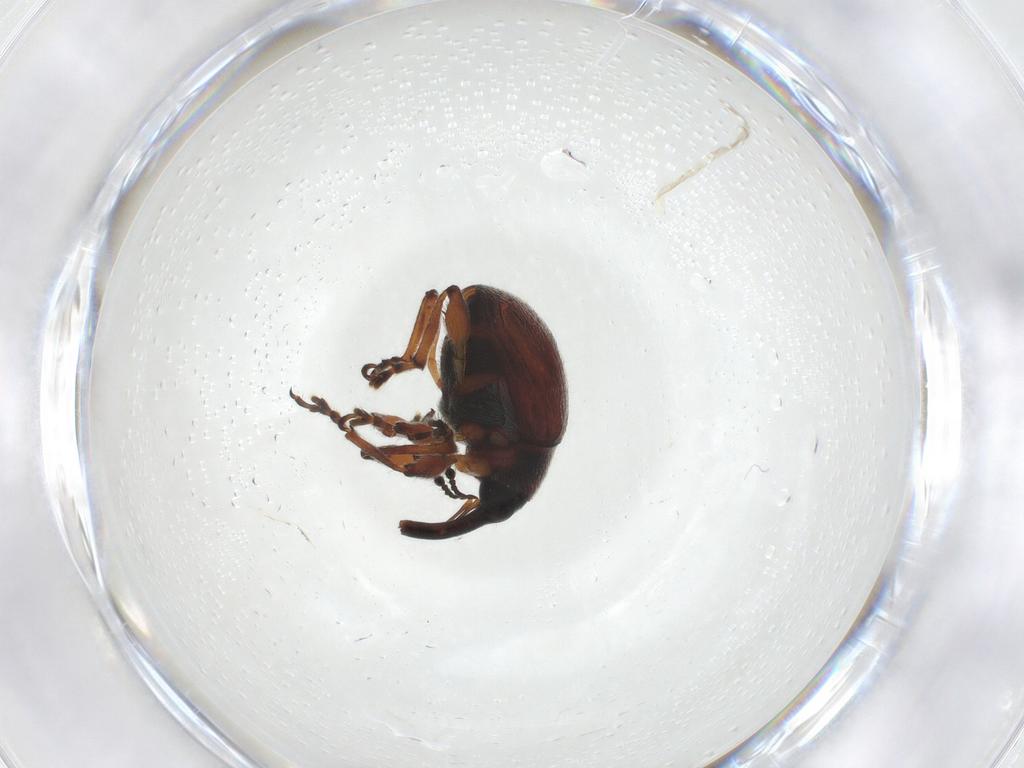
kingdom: Animalia
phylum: Arthropoda
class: Insecta
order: Coleoptera
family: Brentidae
